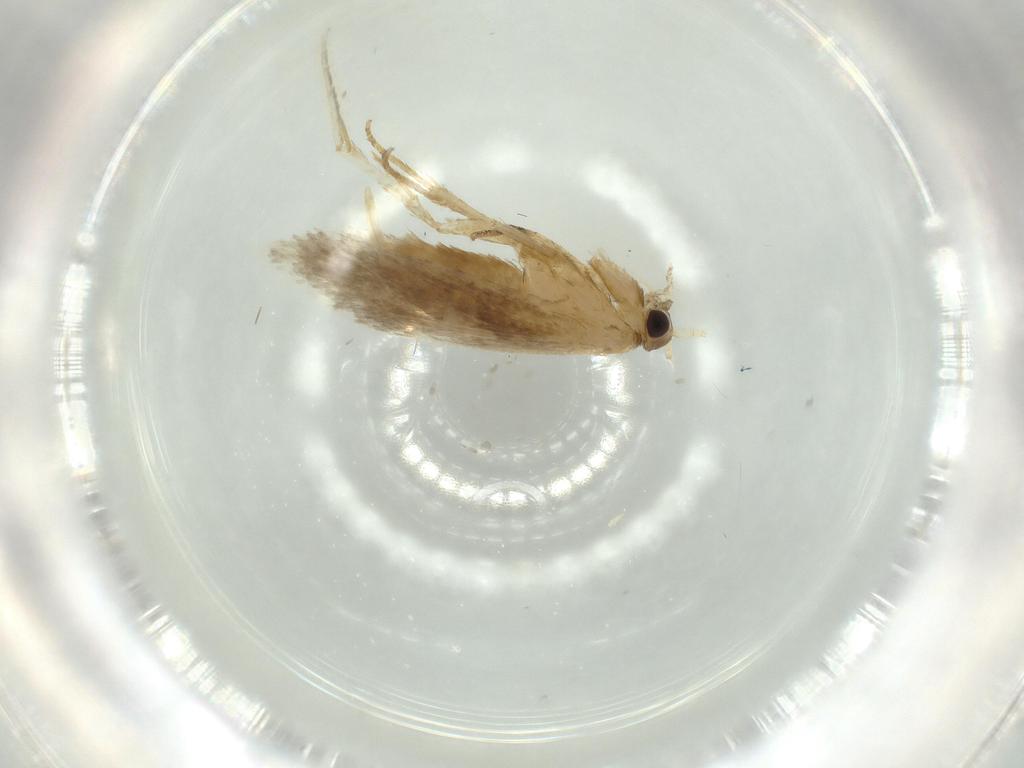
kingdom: Animalia
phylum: Arthropoda
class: Insecta
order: Lepidoptera
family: Tineidae
